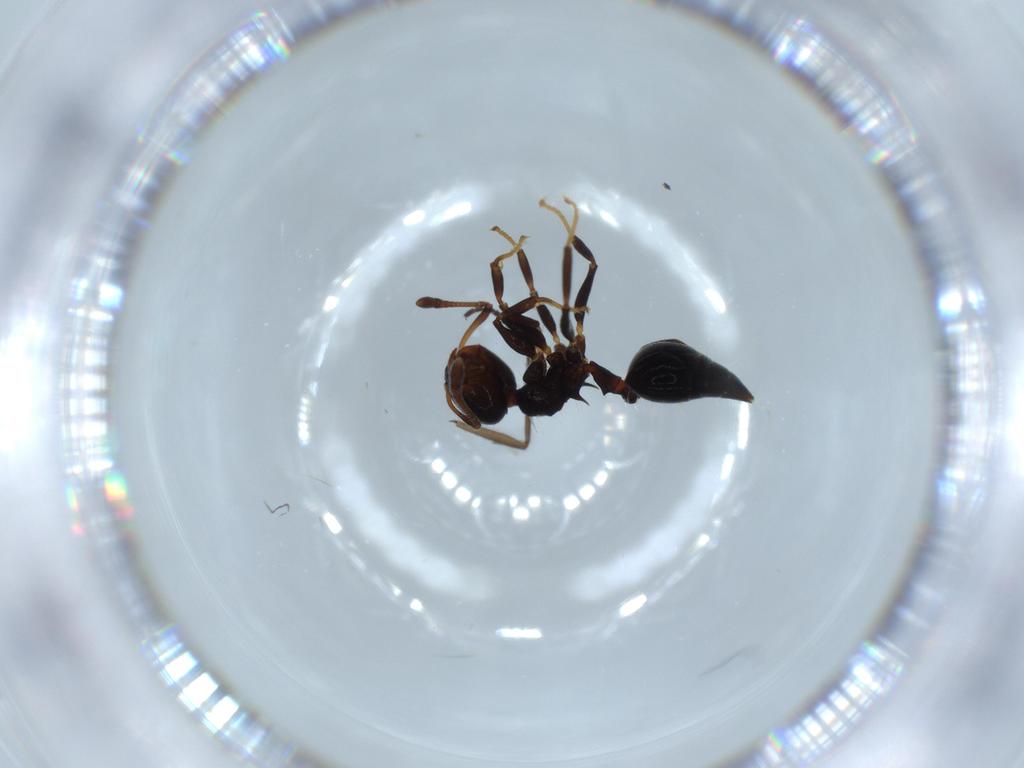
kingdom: Animalia
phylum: Arthropoda
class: Insecta
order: Hymenoptera
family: Formicidae
